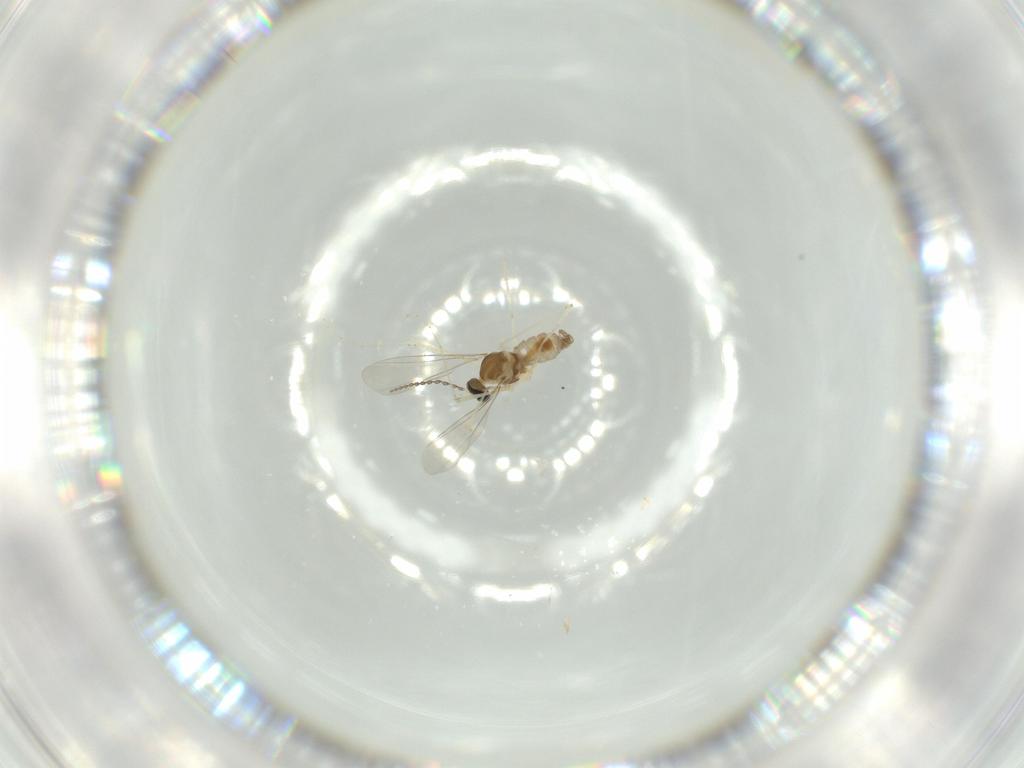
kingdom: Animalia
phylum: Arthropoda
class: Insecta
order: Diptera
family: Cecidomyiidae
